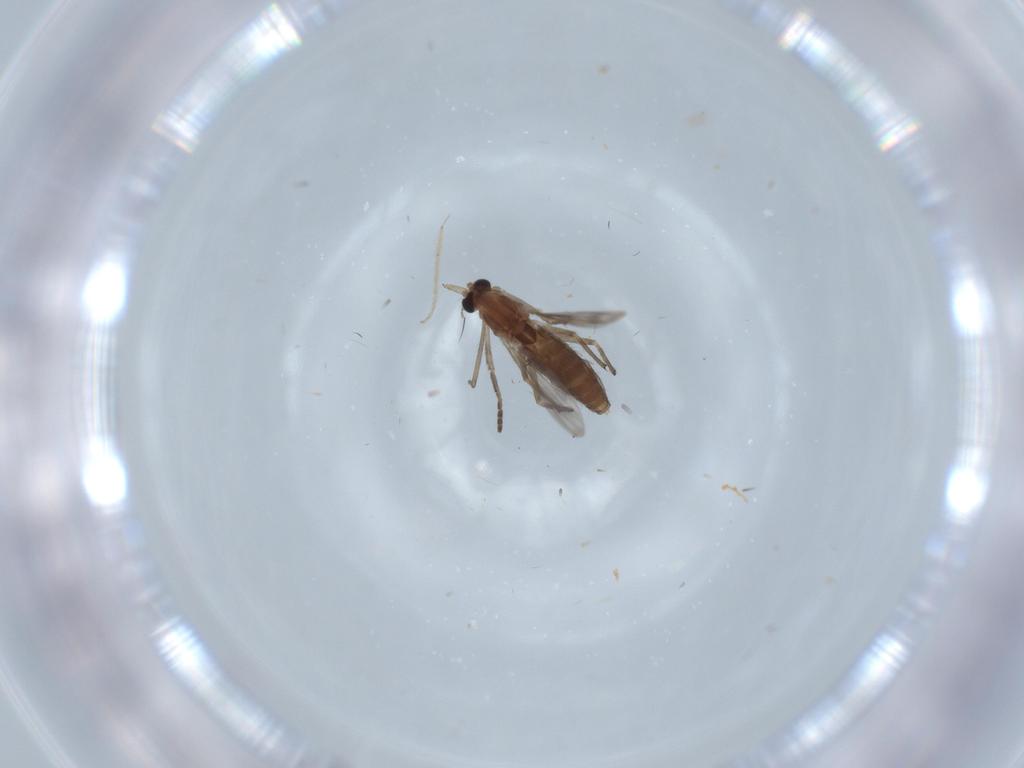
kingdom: Animalia
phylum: Arthropoda
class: Insecta
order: Diptera
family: Chironomidae
